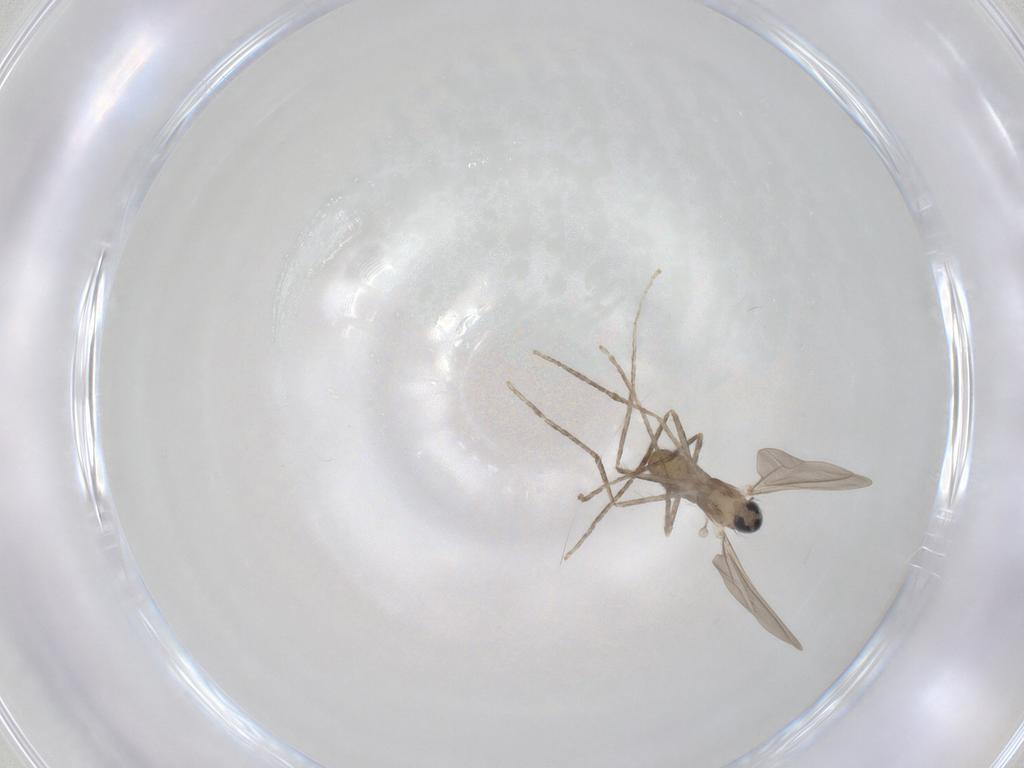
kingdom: Animalia
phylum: Arthropoda
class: Insecta
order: Diptera
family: Cecidomyiidae
